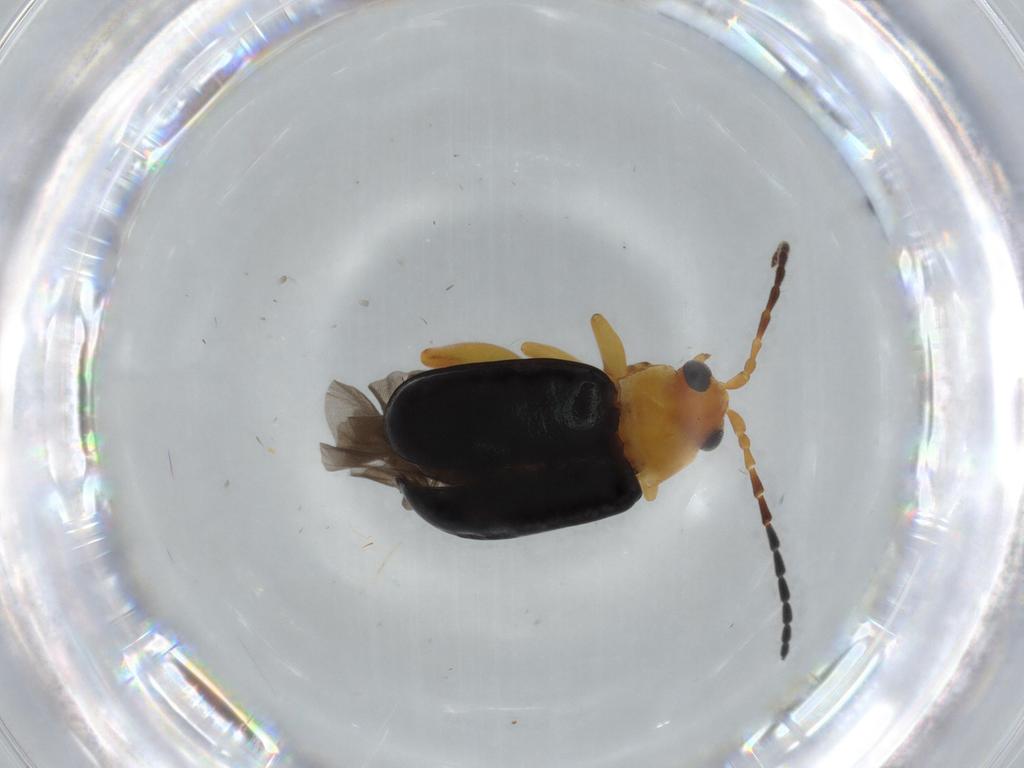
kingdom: Animalia
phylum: Arthropoda
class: Insecta
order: Coleoptera
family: Chrysomelidae
